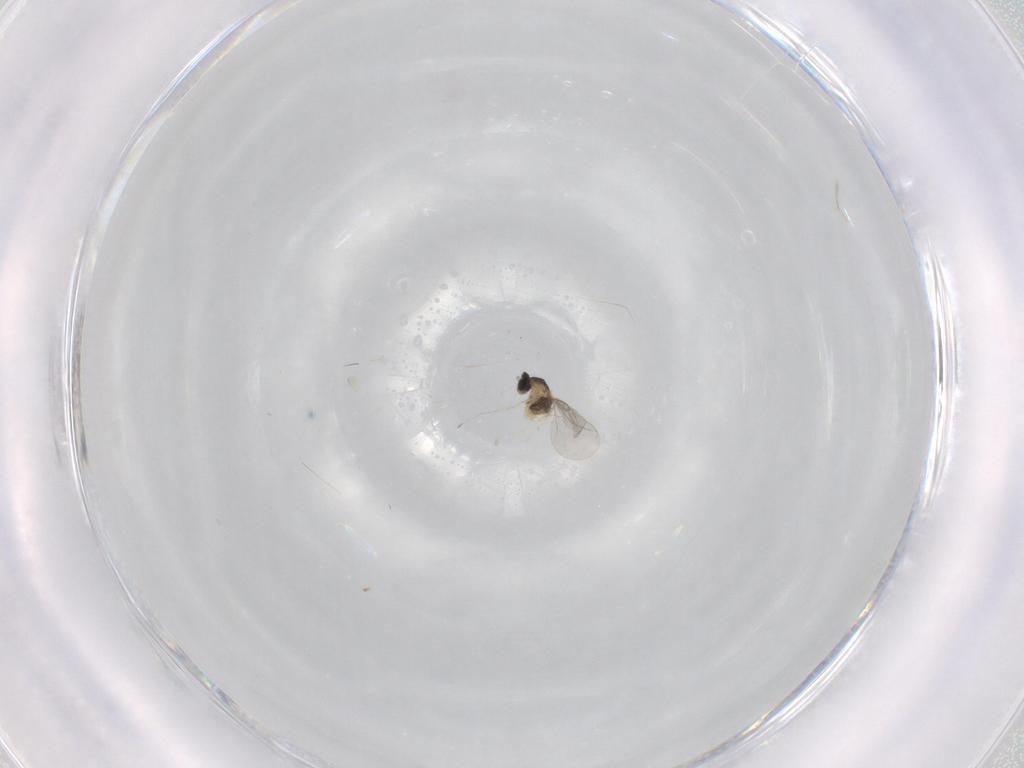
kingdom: Animalia
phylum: Arthropoda
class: Insecta
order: Diptera
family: Cecidomyiidae
